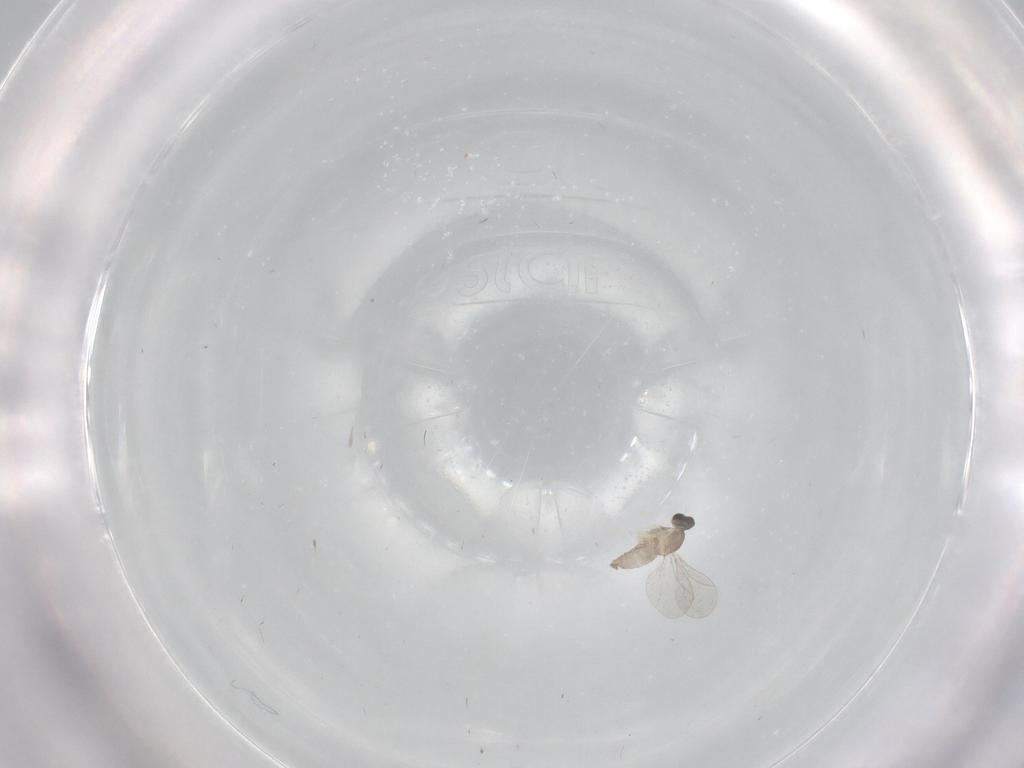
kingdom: Animalia
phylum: Arthropoda
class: Insecta
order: Diptera
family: Phoridae
